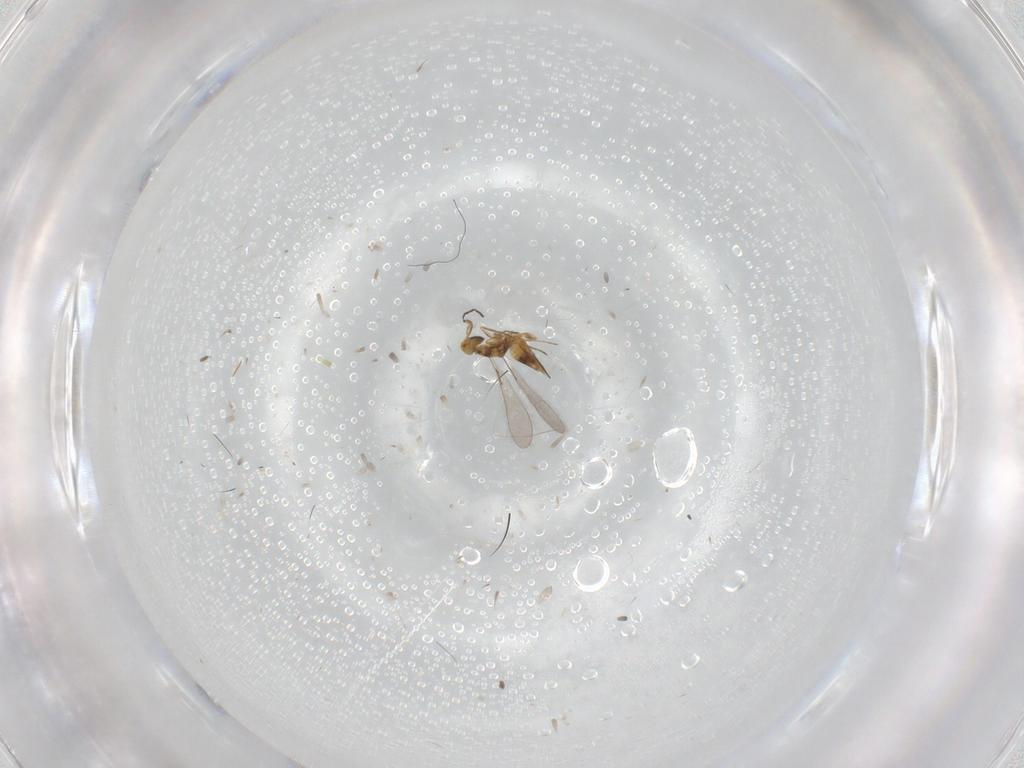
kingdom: Animalia
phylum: Arthropoda
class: Insecta
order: Hymenoptera
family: Mymaridae
